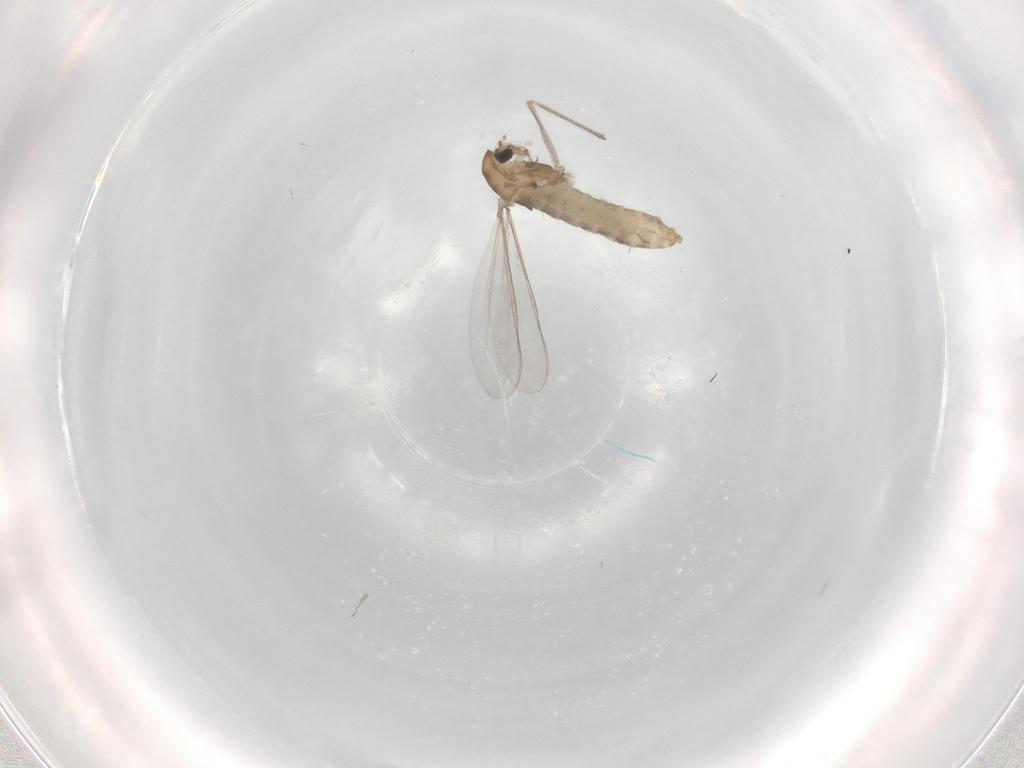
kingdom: Animalia
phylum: Arthropoda
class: Insecta
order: Diptera
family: Chironomidae
